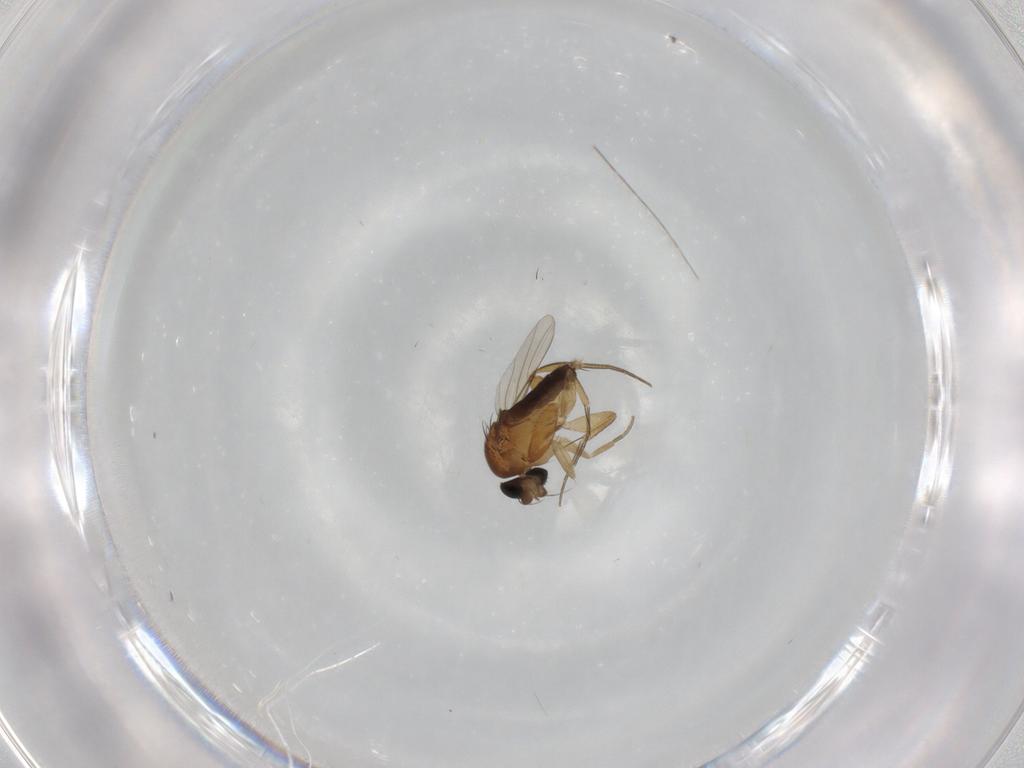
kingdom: Animalia
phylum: Arthropoda
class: Insecta
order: Diptera
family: Phoridae
